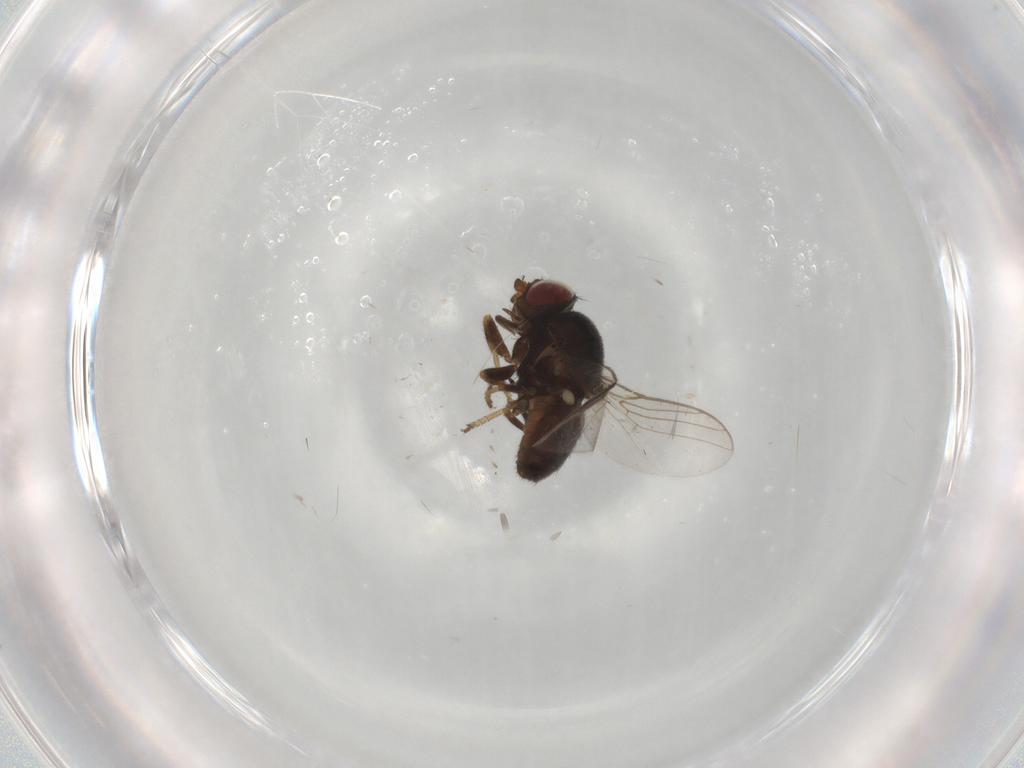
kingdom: Animalia
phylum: Arthropoda
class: Insecta
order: Diptera
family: Chloropidae
